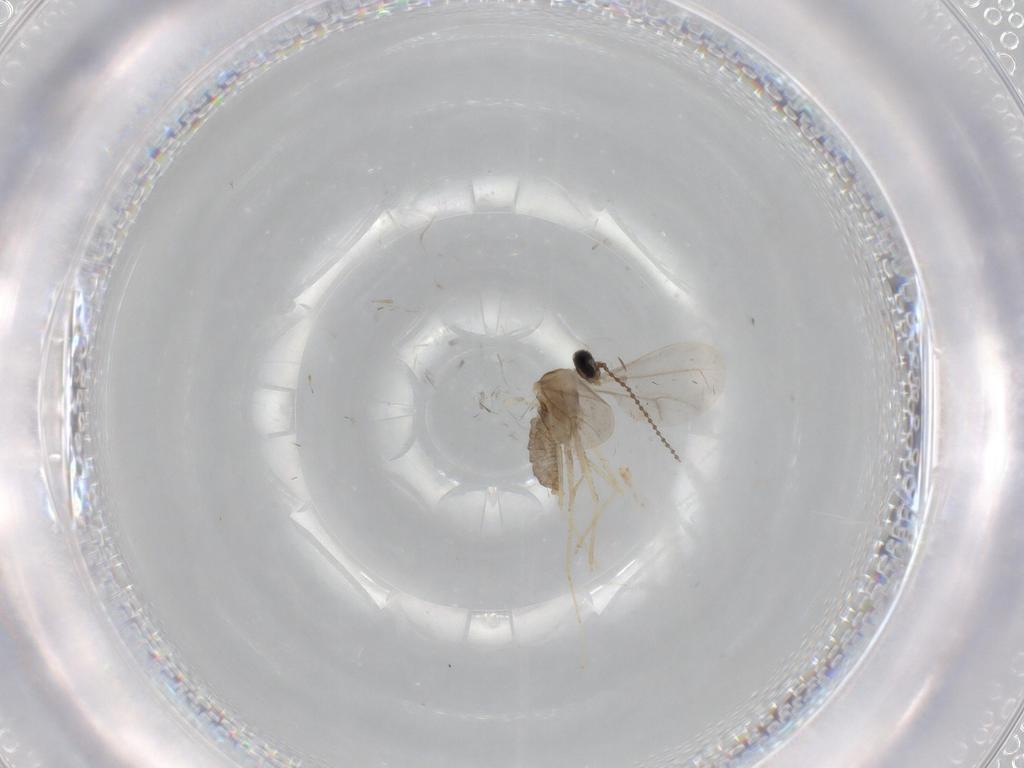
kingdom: Animalia
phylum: Arthropoda
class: Insecta
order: Diptera
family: Cecidomyiidae
